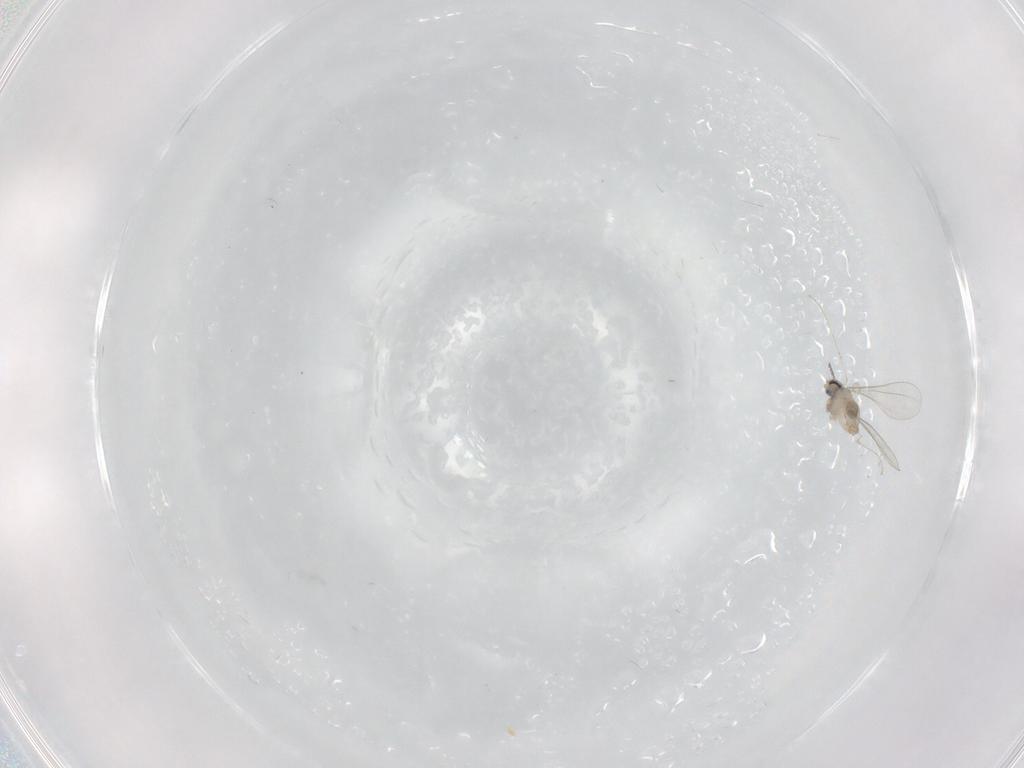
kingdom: Animalia
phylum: Arthropoda
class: Insecta
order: Diptera
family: Cecidomyiidae
